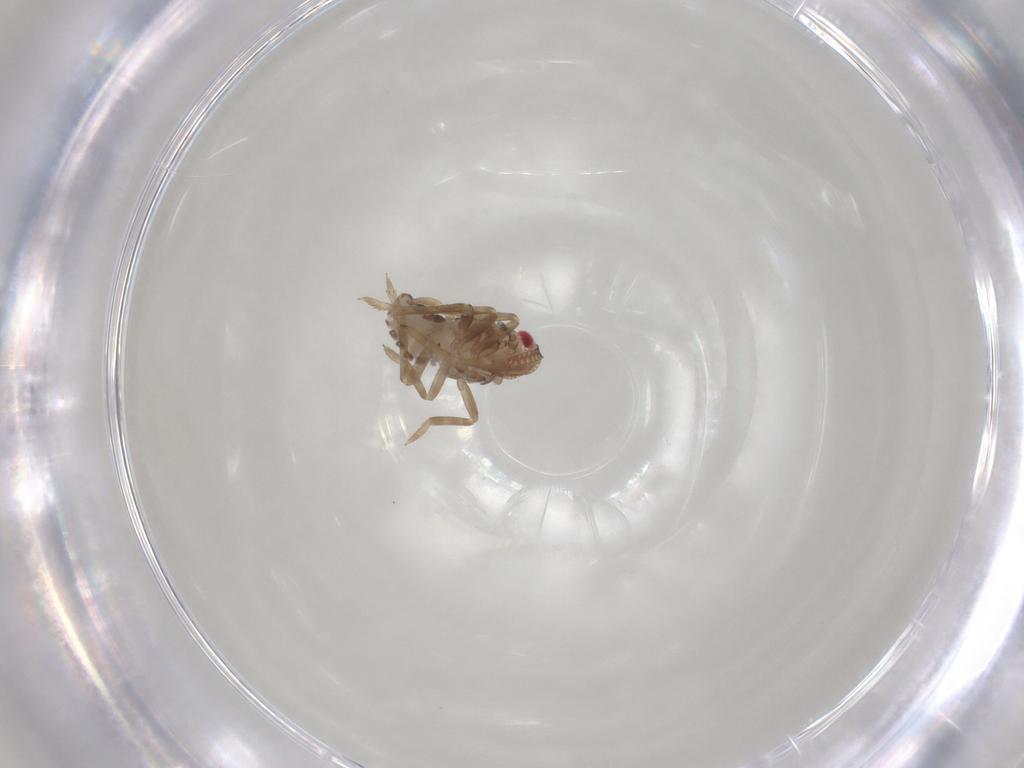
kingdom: Animalia
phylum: Arthropoda
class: Insecta
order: Hemiptera
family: Cicadellidae
